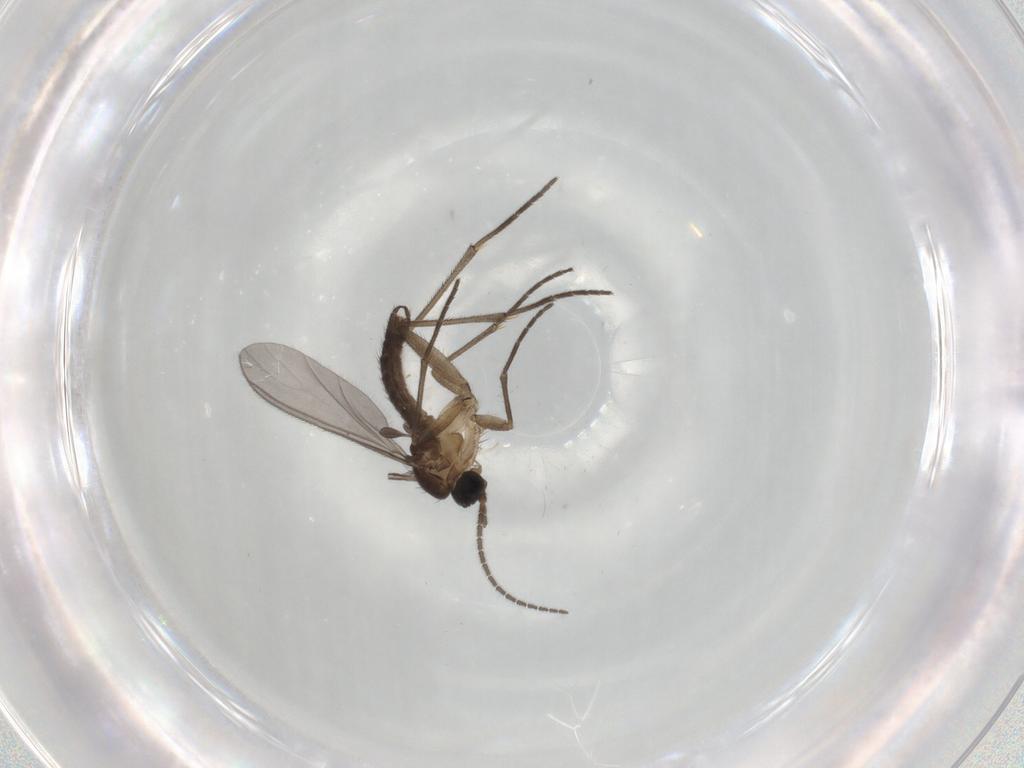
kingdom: Animalia
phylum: Arthropoda
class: Insecta
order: Diptera
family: Sciaridae
